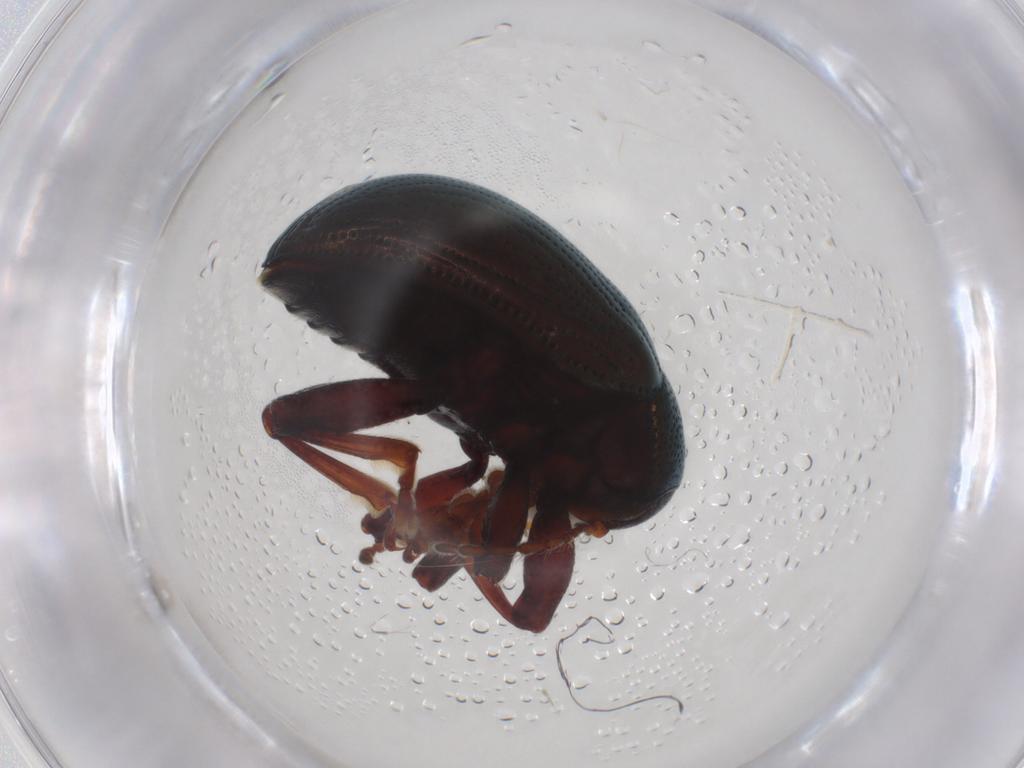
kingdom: Animalia
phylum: Arthropoda
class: Insecta
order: Coleoptera
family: Chrysomelidae
